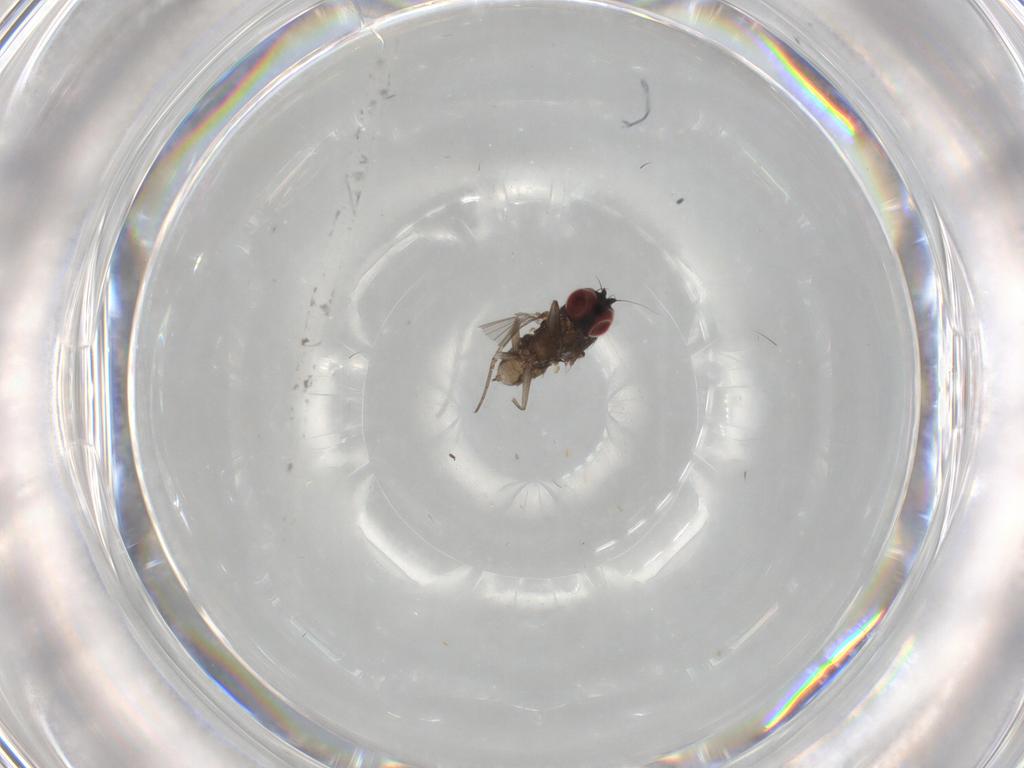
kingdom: Animalia
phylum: Arthropoda
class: Insecta
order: Diptera
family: Dolichopodidae
